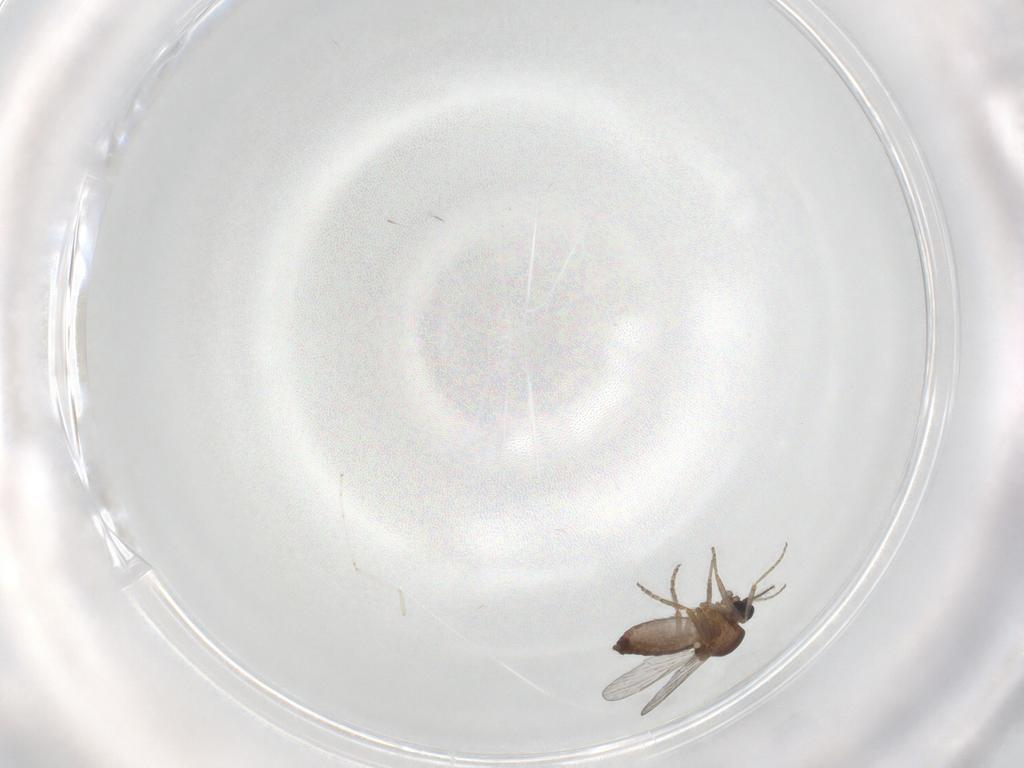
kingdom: Animalia
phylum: Arthropoda
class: Insecta
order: Diptera
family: Ceratopogonidae
